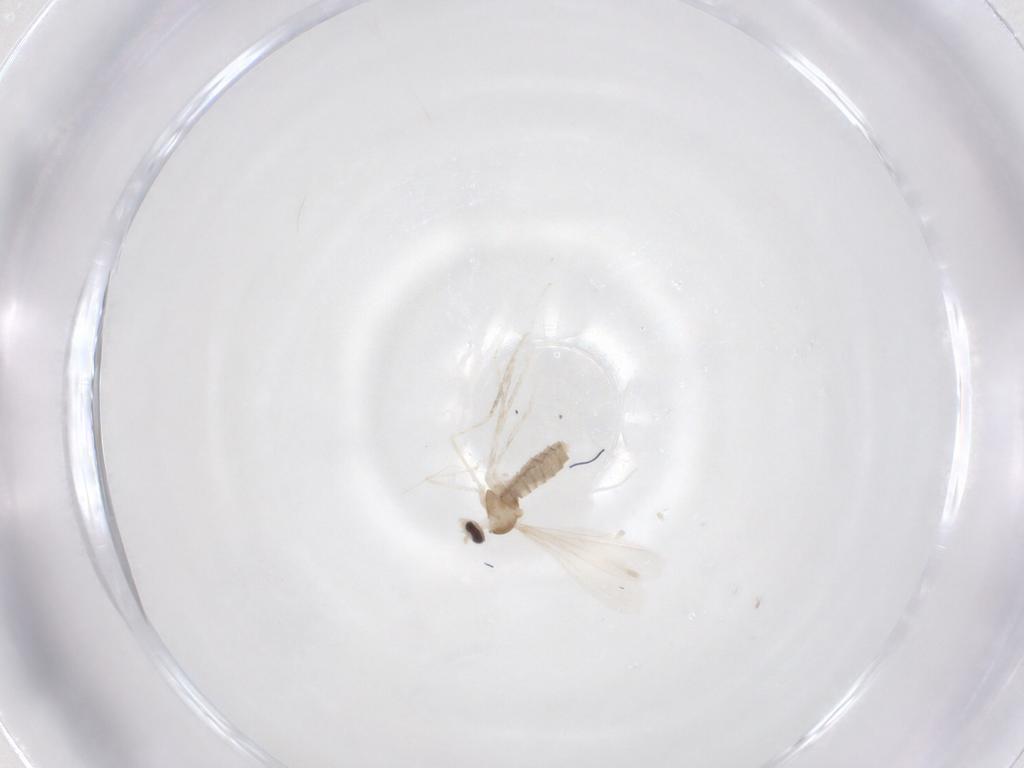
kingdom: Animalia
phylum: Arthropoda
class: Insecta
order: Diptera
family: Cecidomyiidae
